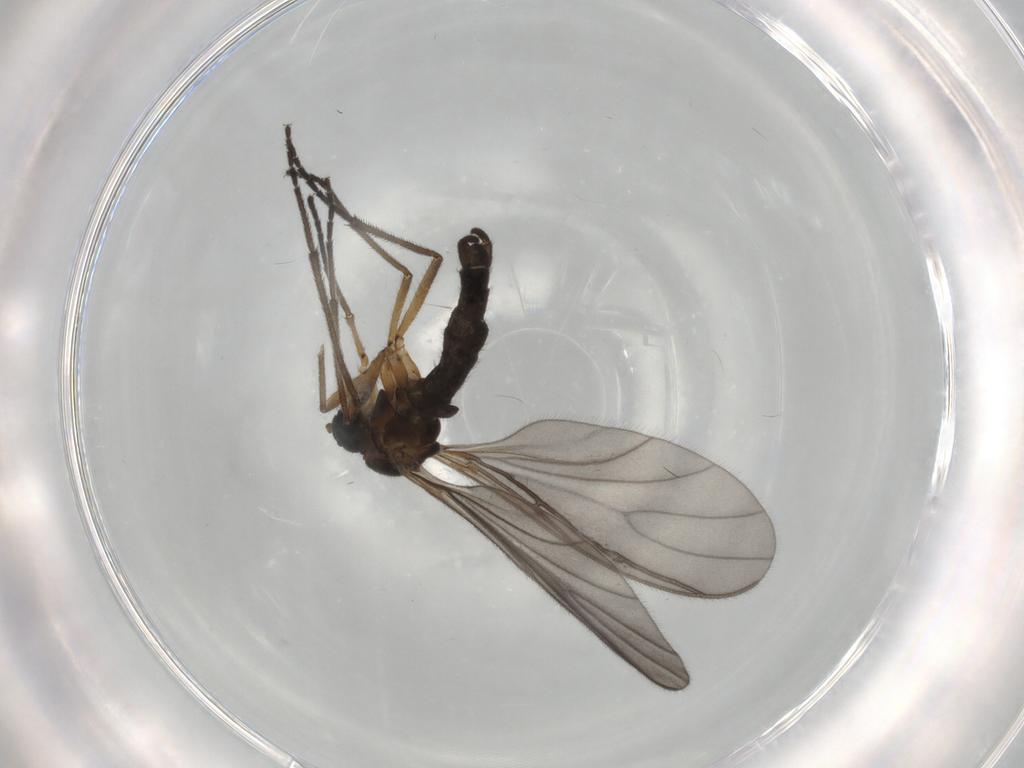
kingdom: Animalia
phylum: Arthropoda
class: Insecta
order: Diptera
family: Sciaridae
